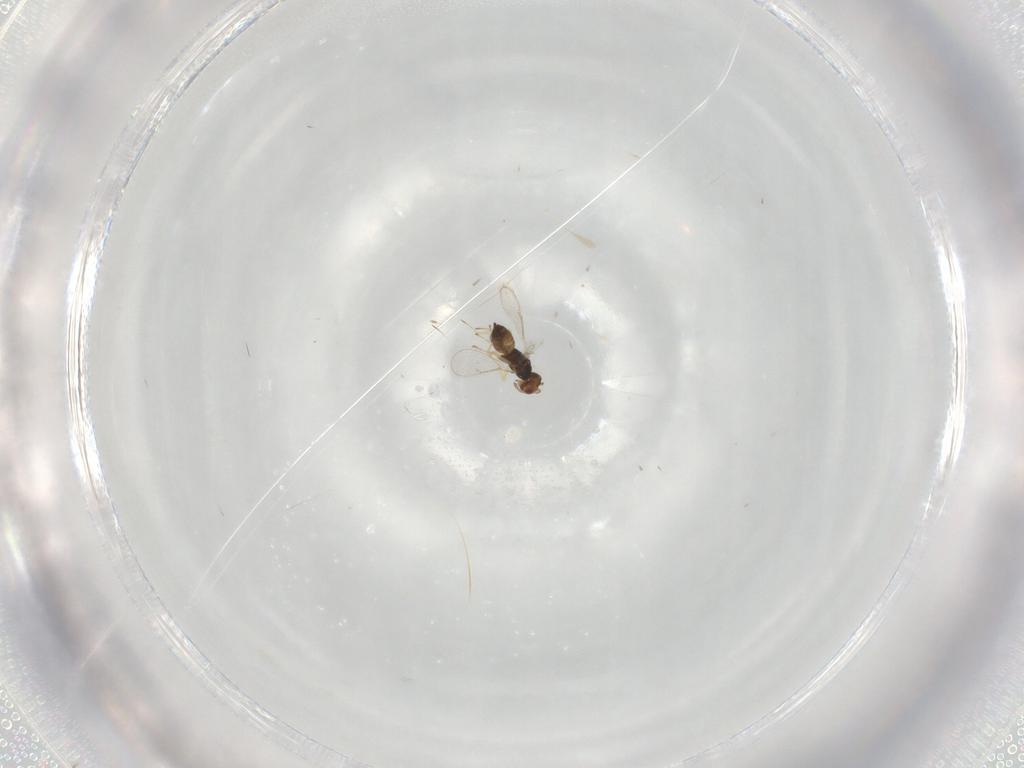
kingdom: Animalia
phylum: Arthropoda
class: Insecta
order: Hymenoptera
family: Eulophidae
